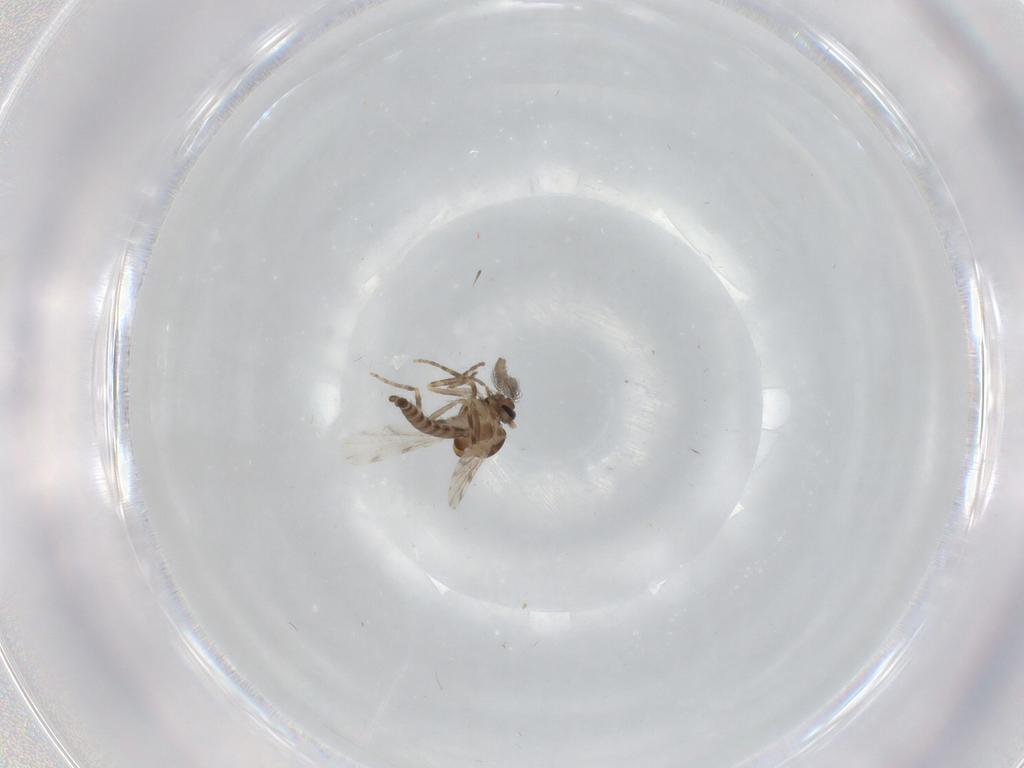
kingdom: Animalia
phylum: Arthropoda
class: Insecta
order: Diptera
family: Ceratopogonidae
